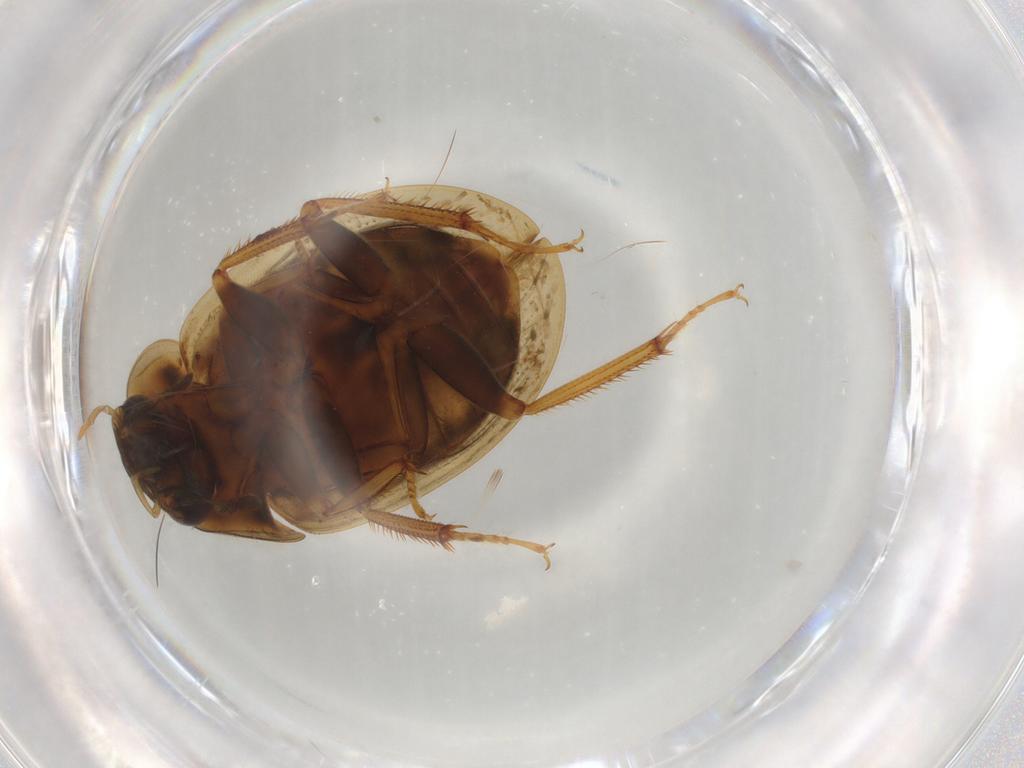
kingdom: Animalia
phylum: Arthropoda
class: Insecta
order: Coleoptera
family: Hydrophilidae
